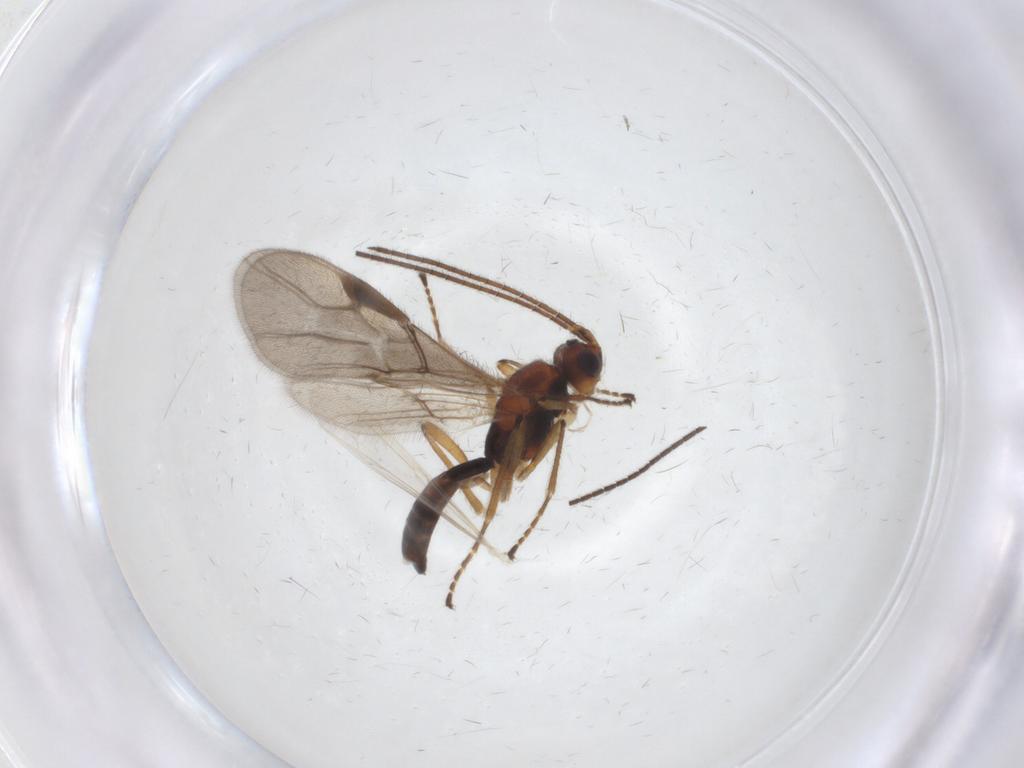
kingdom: Animalia
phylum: Arthropoda
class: Insecta
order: Hymenoptera
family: Braconidae
